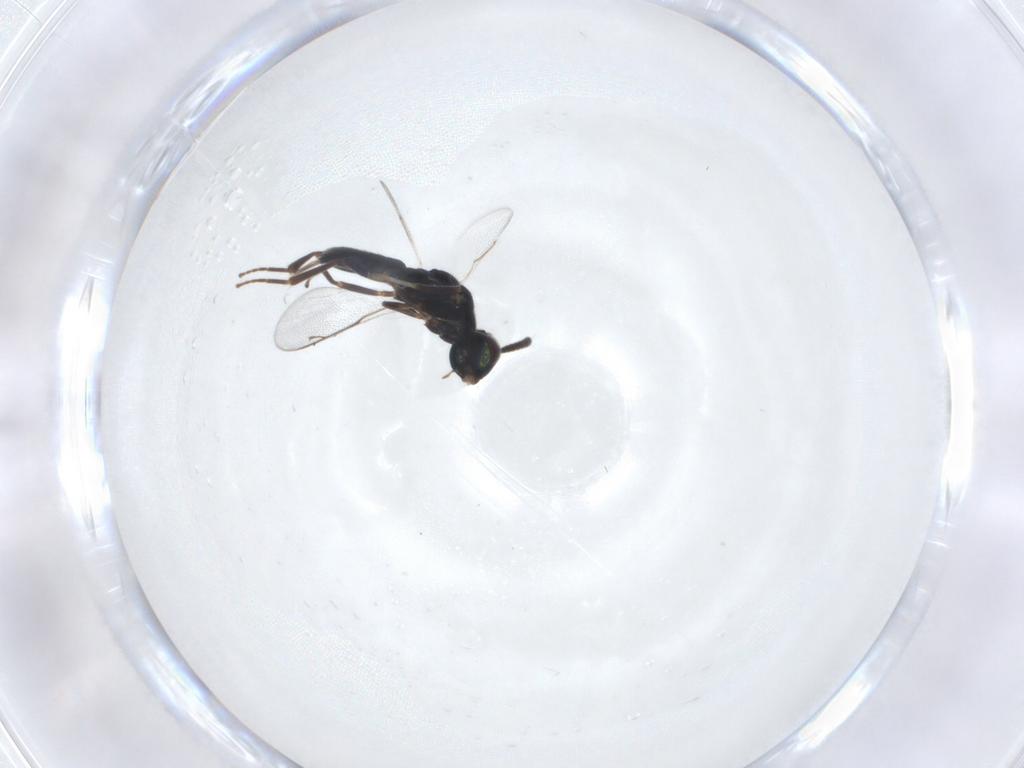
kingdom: Animalia
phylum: Arthropoda
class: Insecta
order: Hymenoptera
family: Cleonyminae
